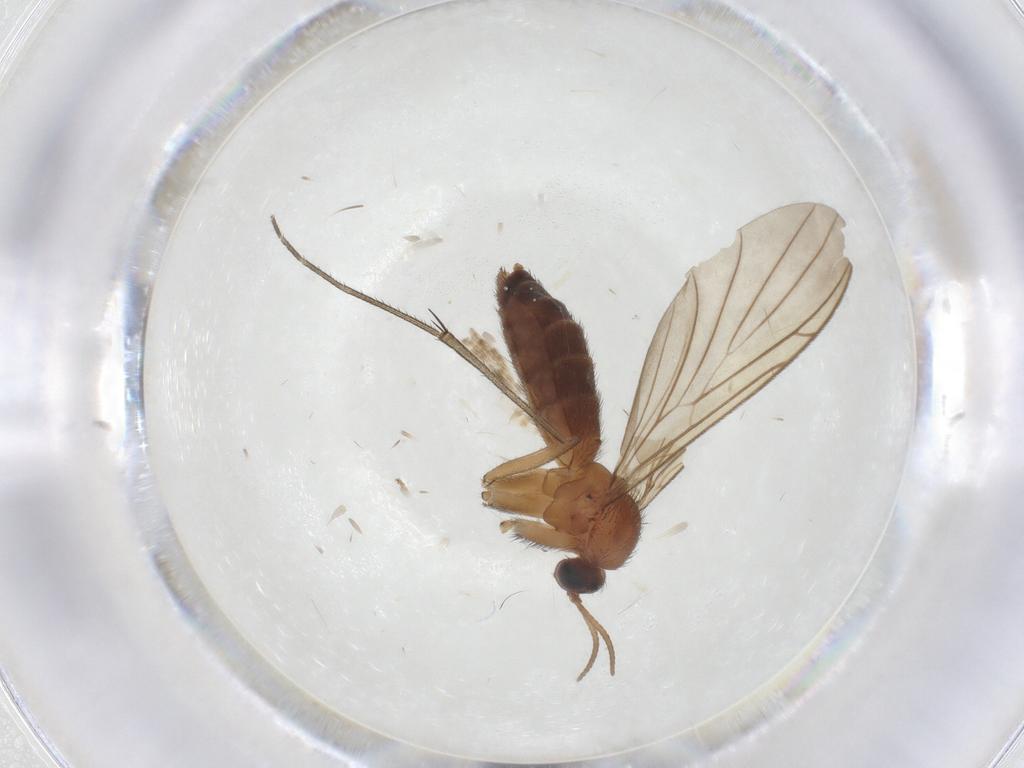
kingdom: Animalia
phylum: Arthropoda
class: Insecta
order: Diptera
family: Keroplatidae
